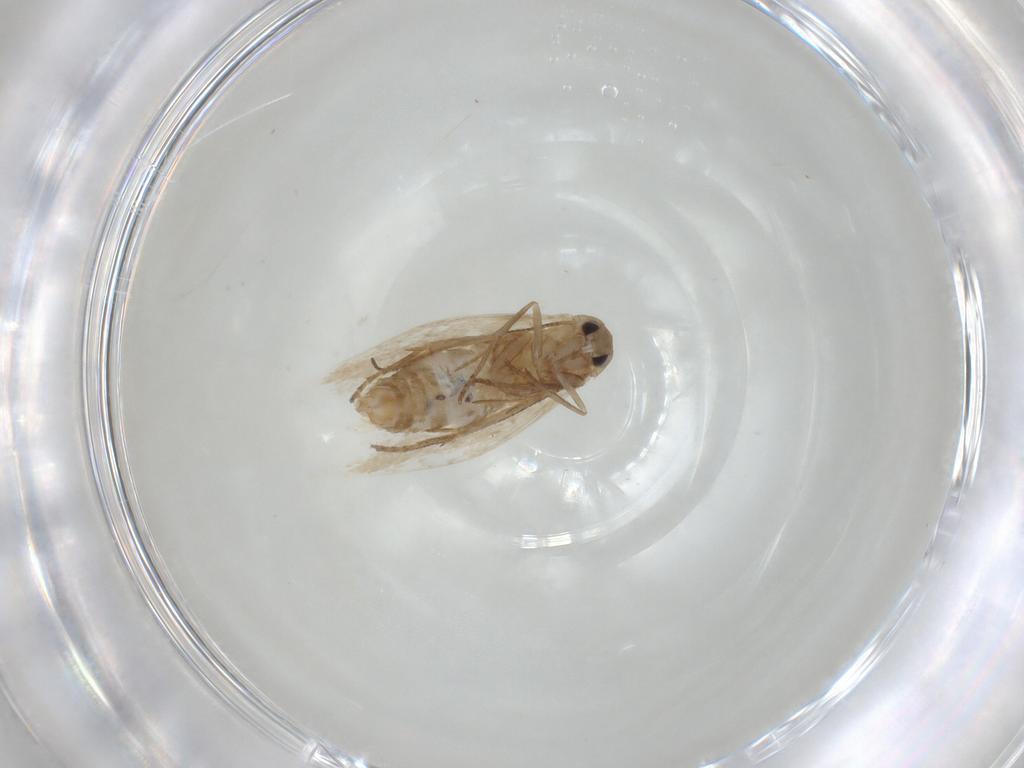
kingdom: Animalia
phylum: Arthropoda
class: Insecta
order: Lepidoptera
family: Bucculatricidae
